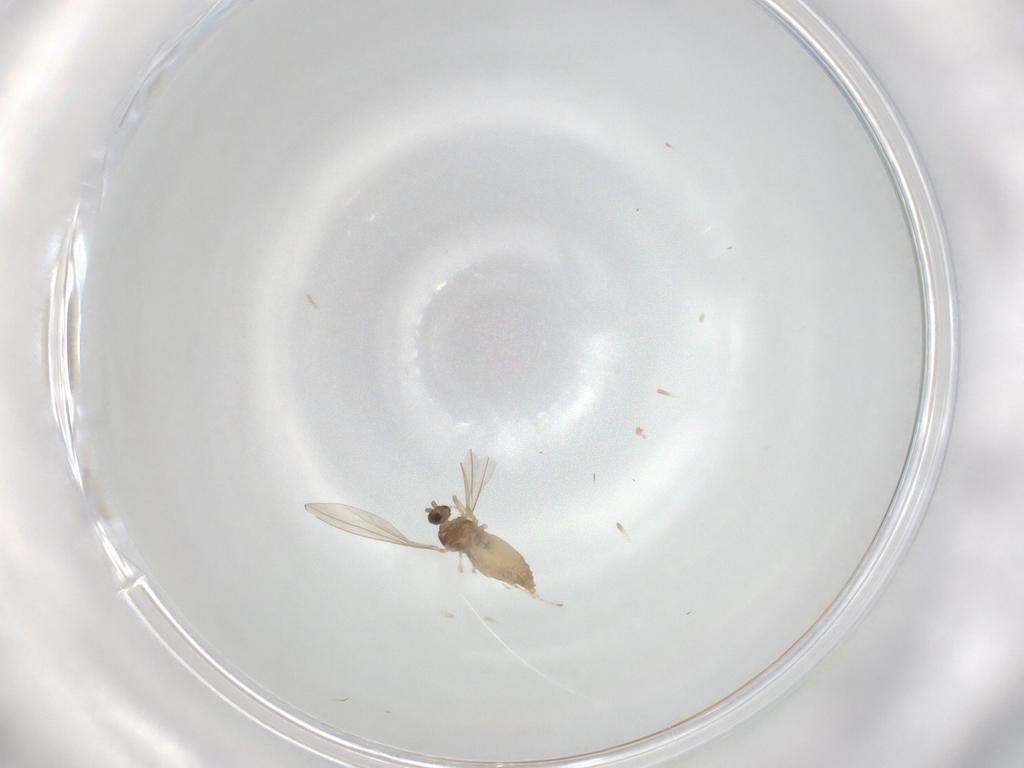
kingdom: Animalia
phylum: Arthropoda
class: Insecta
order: Diptera
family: Cecidomyiidae
